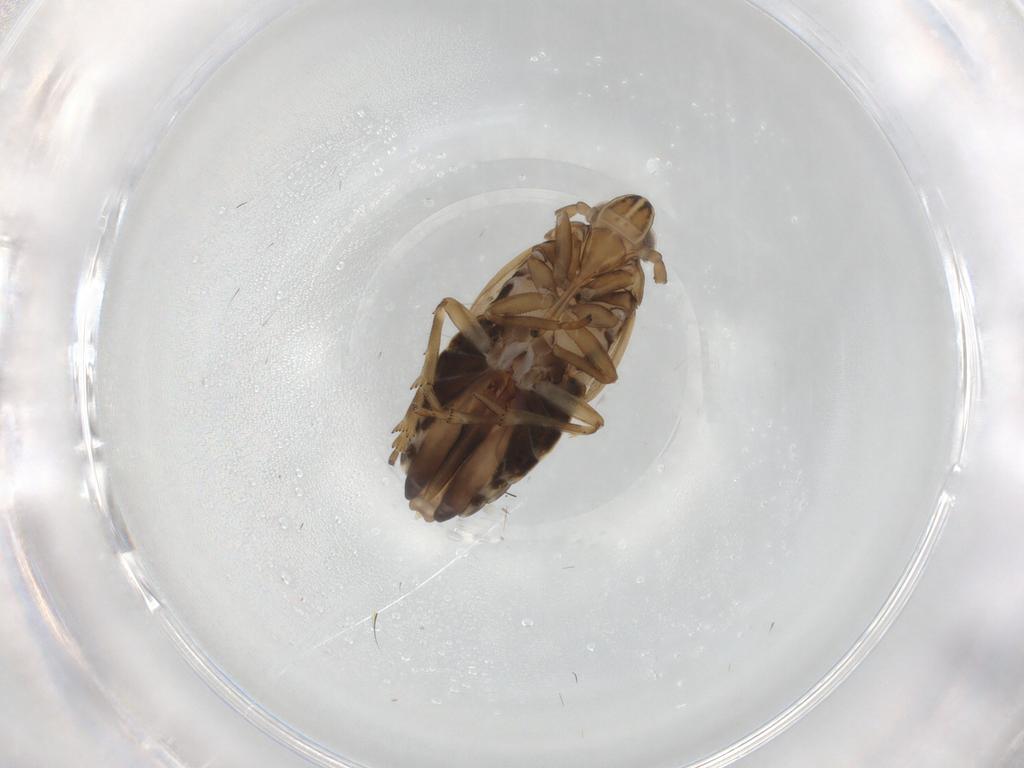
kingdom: Animalia
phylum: Arthropoda
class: Insecta
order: Hemiptera
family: Delphacidae
